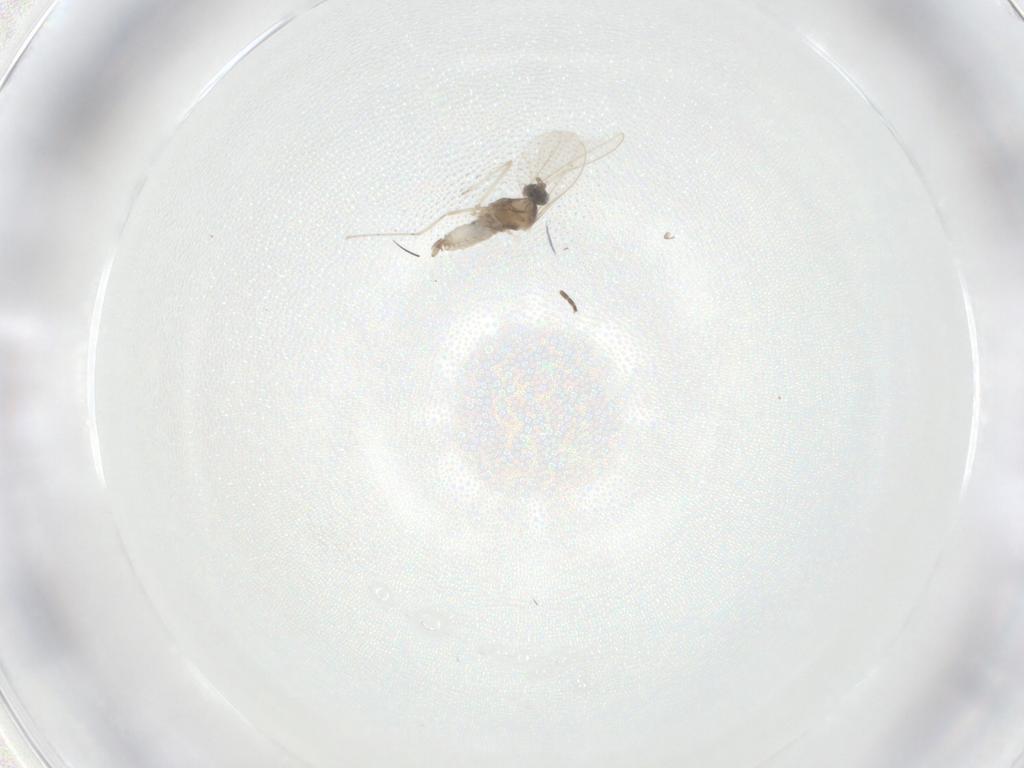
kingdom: Animalia
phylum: Arthropoda
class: Insecta
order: Diptera
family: Cecidomyiidae
